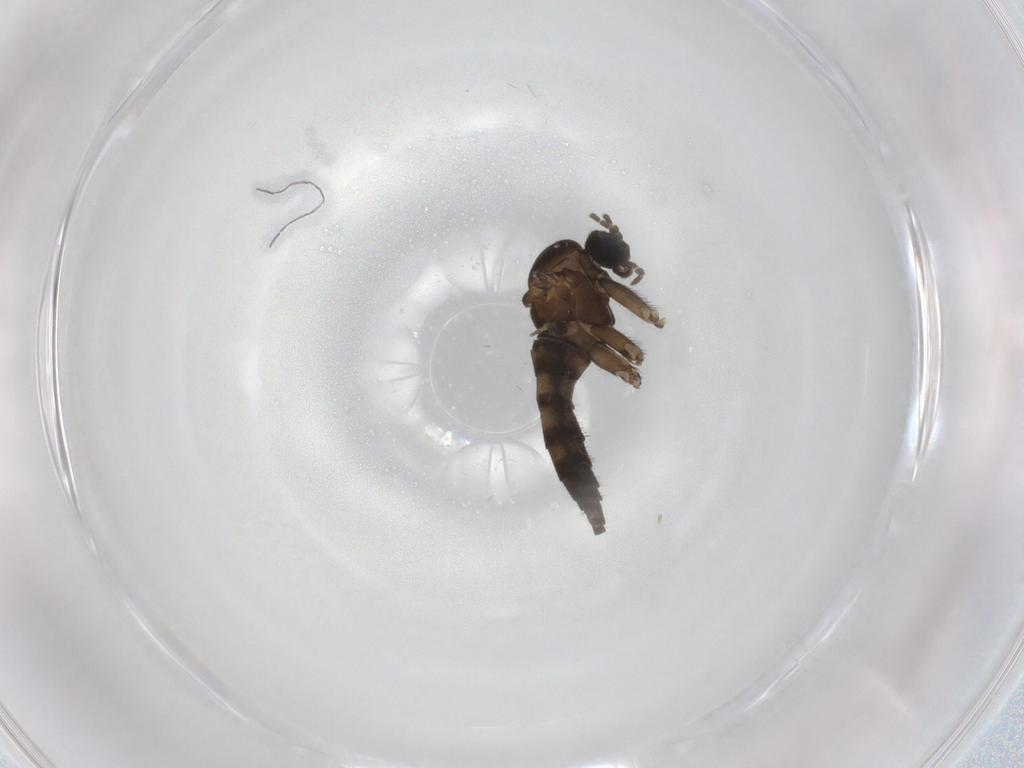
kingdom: Animalia
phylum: Arthropoda
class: Insecta
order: Diptera
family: Sciaridae
